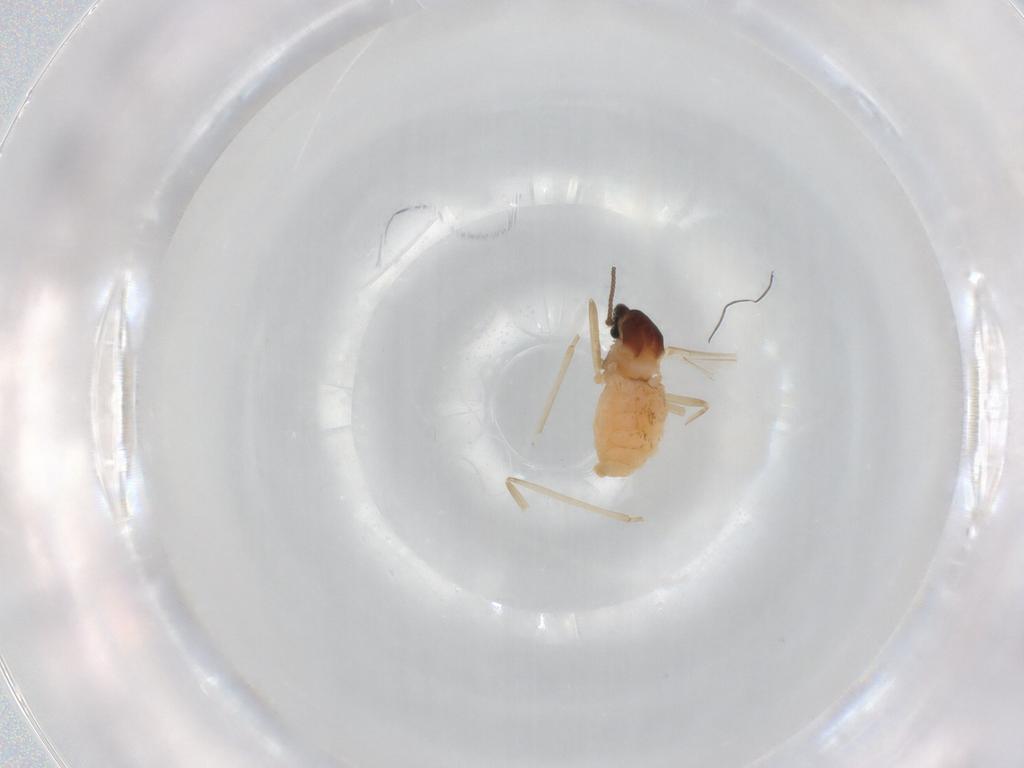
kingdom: Animalia
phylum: Arthropoda
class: Insecta
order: Diptera
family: Cecidomyiidae
